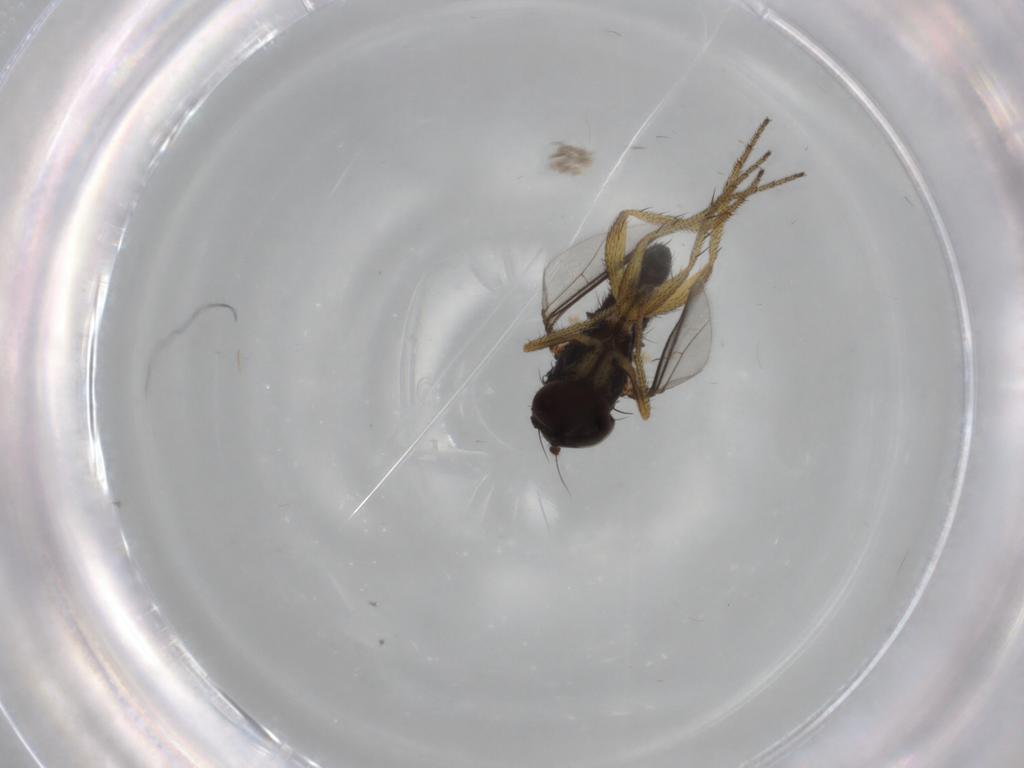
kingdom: Animalia
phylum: Arthropoda
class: Insecta
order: Diptera
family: Dolichopodidae
